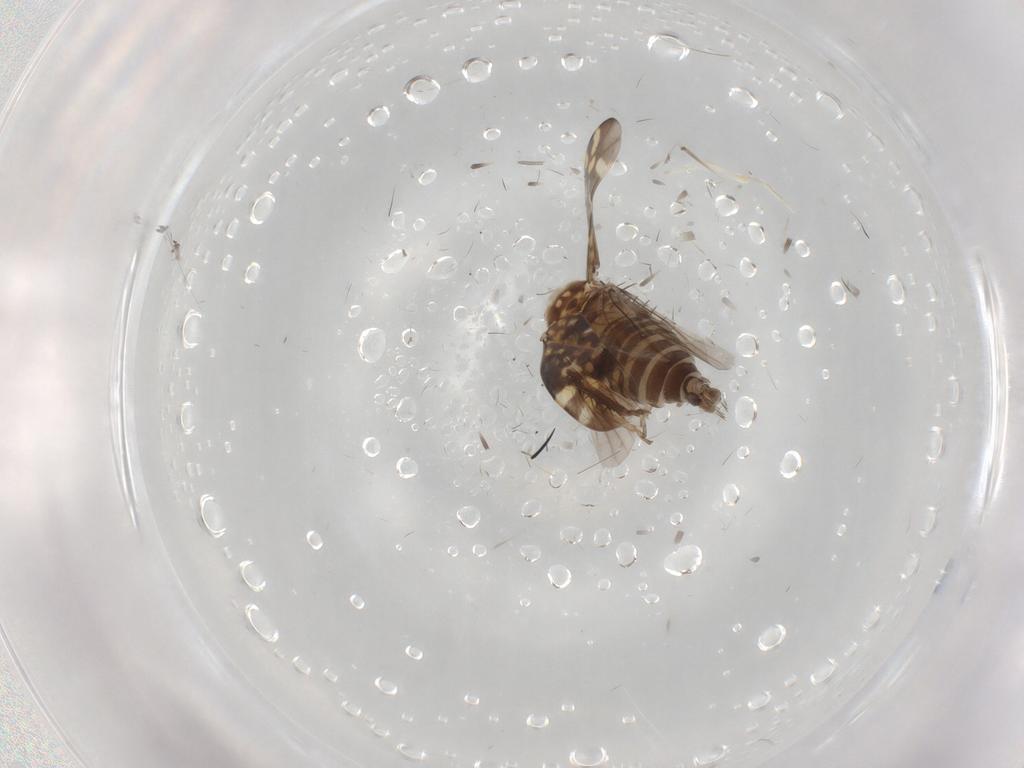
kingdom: Animalia
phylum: Arthropoda
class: Insecta
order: Hemiptera
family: Cicadellidae
